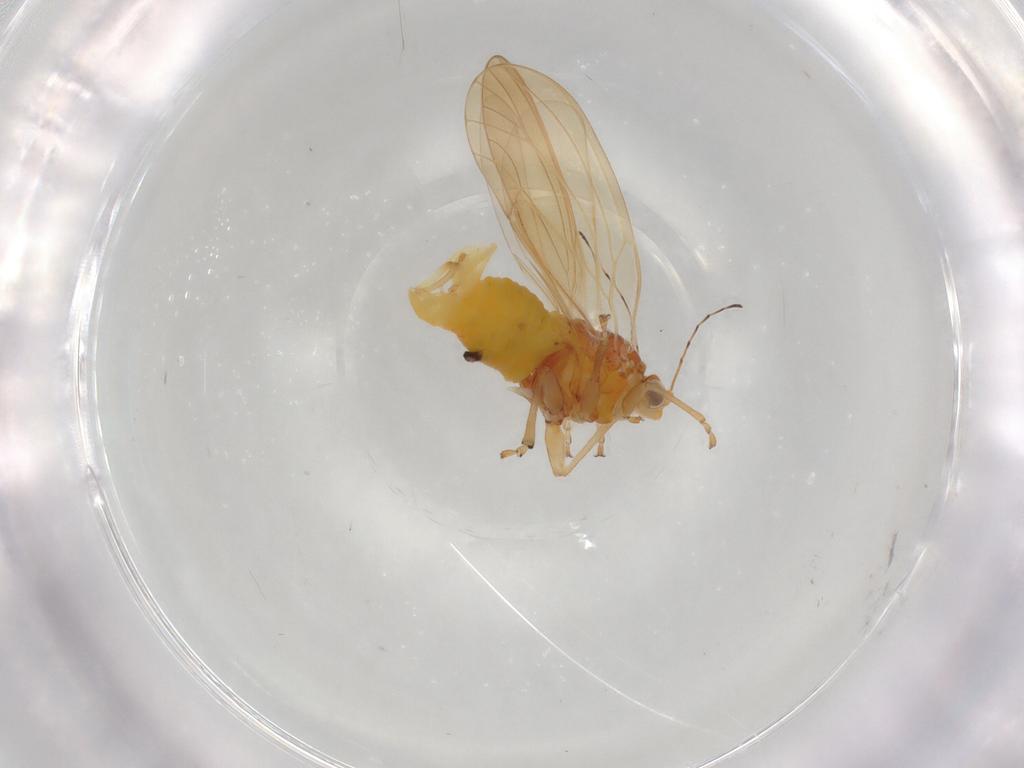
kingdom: Animalia
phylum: Arthropoda
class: Insecta
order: Hemiptera
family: Psylloidea_incertae_sedis
